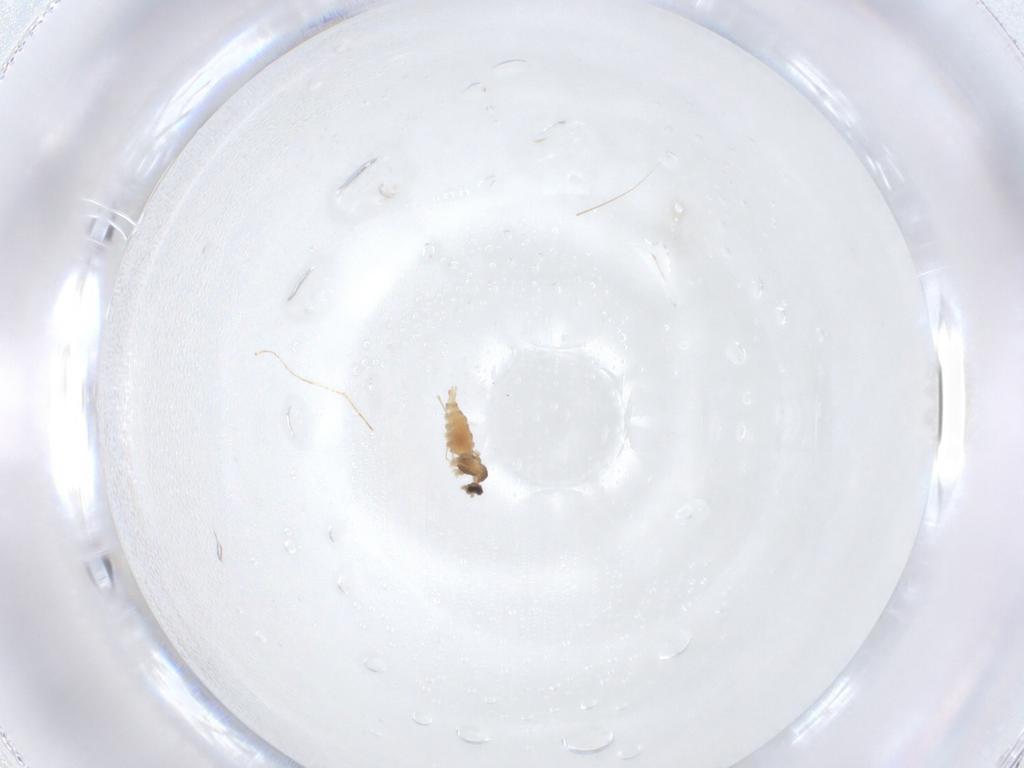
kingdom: Animalia
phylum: Arthropoda
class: Insecta
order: Diptera
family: Cecidomyiidae
